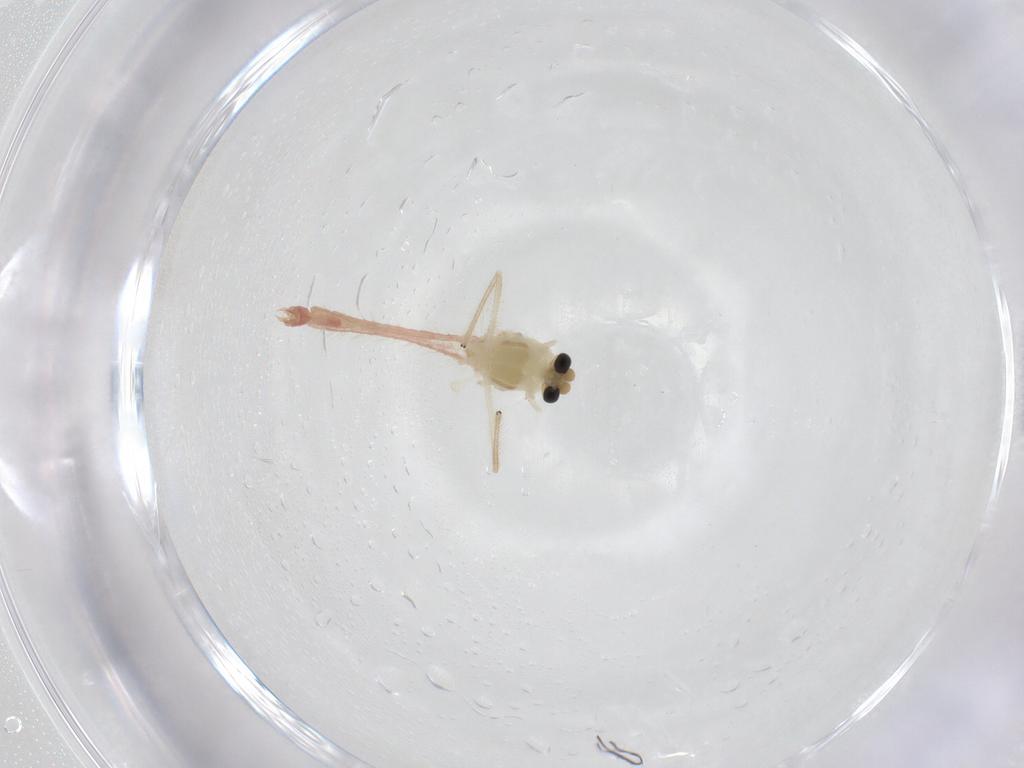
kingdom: Animalia
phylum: Arthropoda
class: Insecta
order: Diptera
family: Chironomidae
